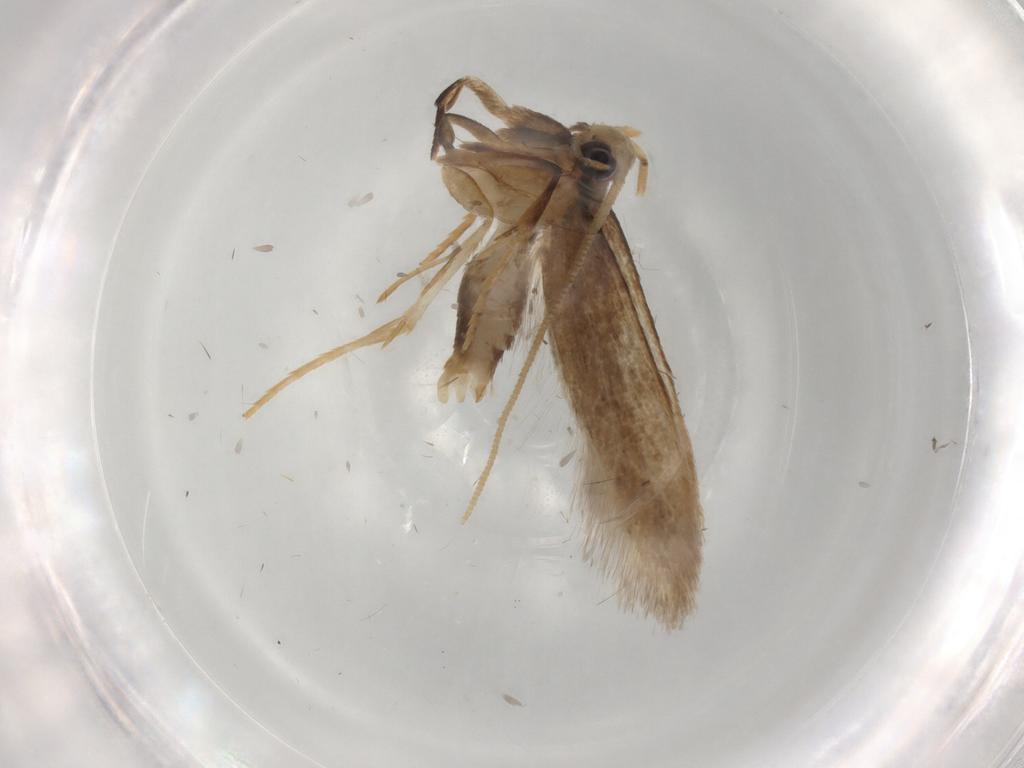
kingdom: Animalia
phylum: Arthropoda
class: Insecta
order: Lepidoptera
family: Coleophoridae
